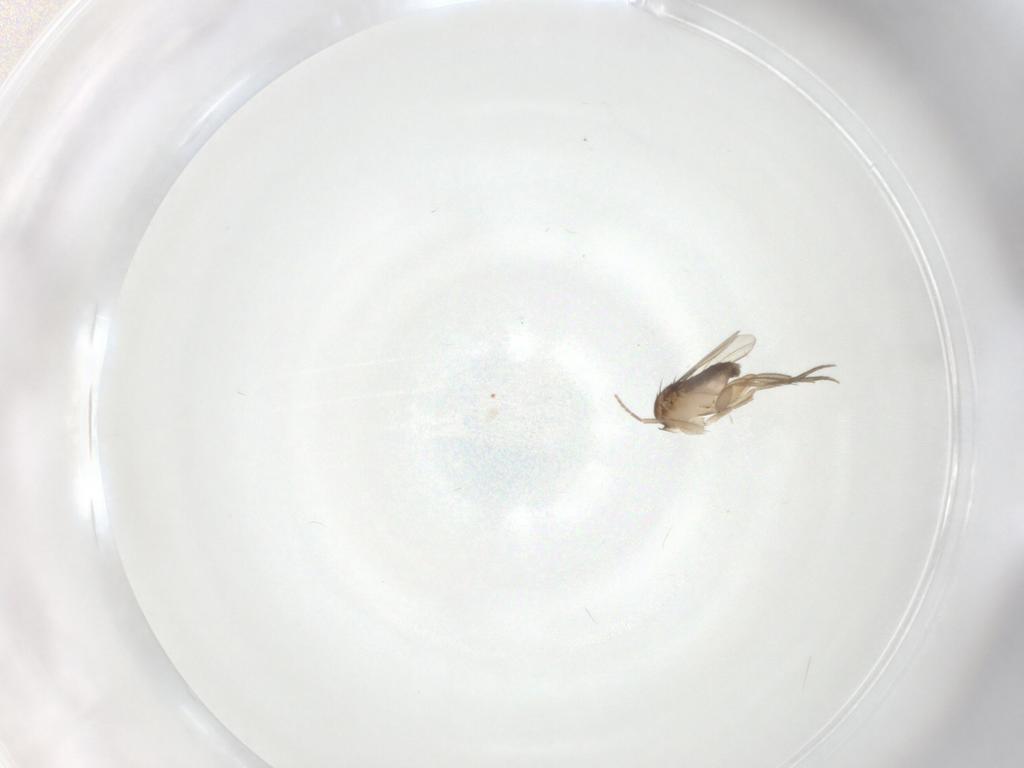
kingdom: Animalia
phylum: Arthropoda
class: Insecta
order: Diptera
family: Phoridae
